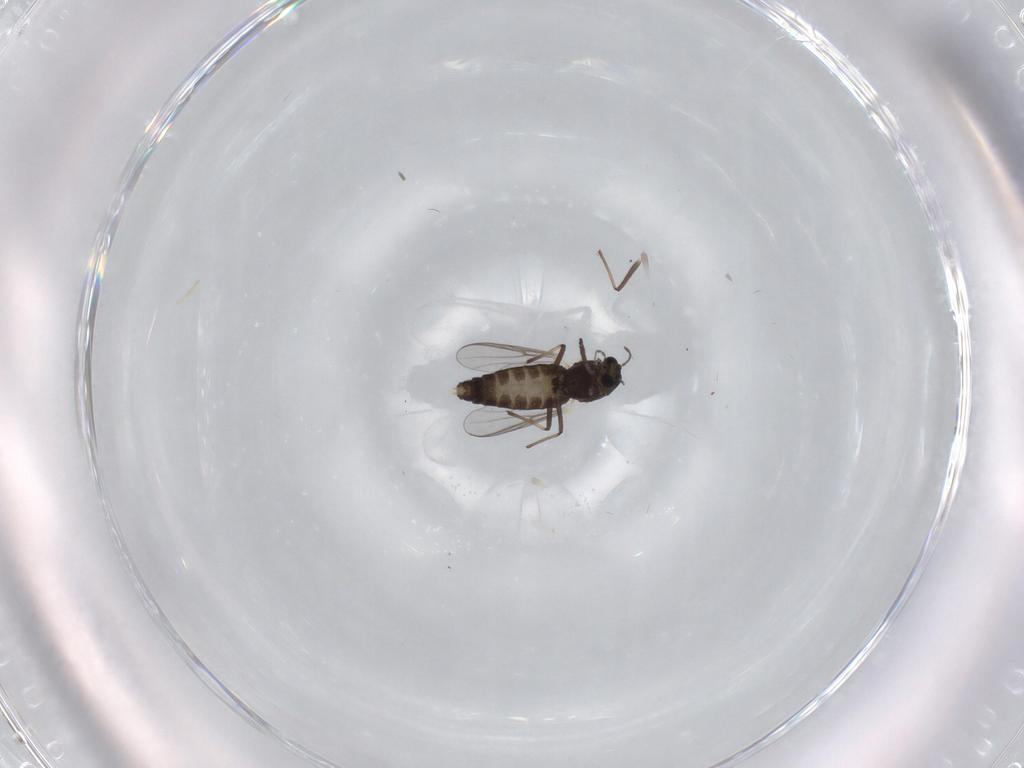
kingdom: Animalia
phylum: Arthropoda
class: Insecta
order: Diptera
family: Chironomidae
